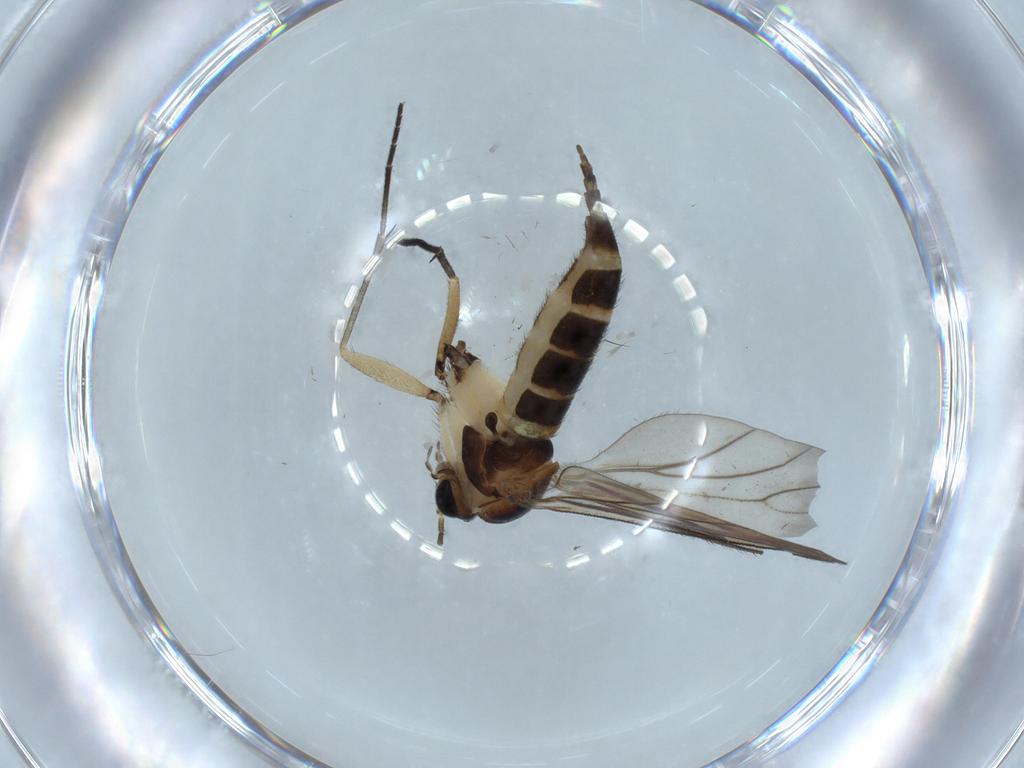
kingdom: Animalia
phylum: Arthropoda
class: Insecta
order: Diptera
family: Sciaridae
